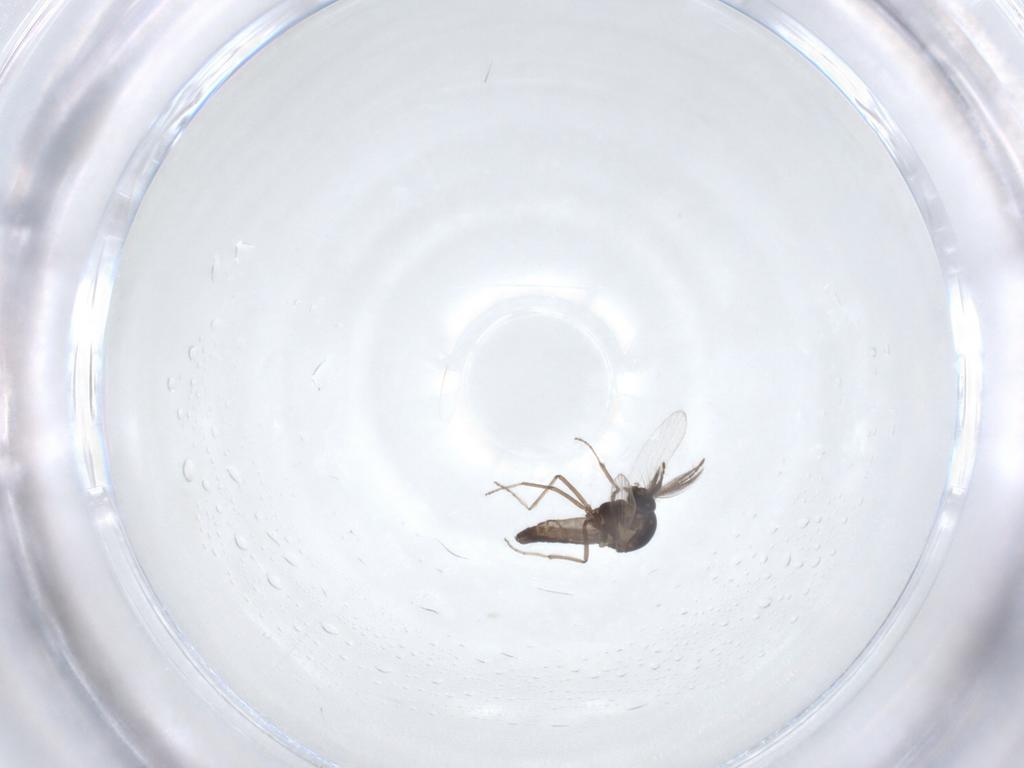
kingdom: Animalia
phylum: Arthropoda
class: Insecta
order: Diptera
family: Ceratopogonidae
